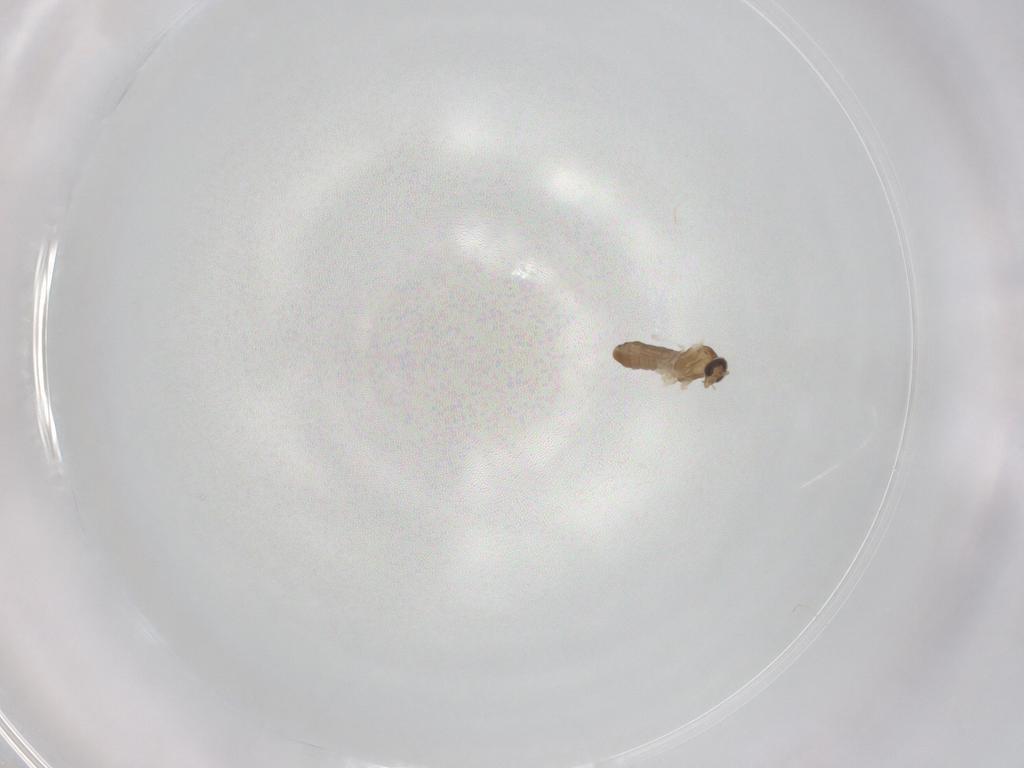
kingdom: Animalia
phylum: Arthropoda
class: Insecta
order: Diptera
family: Cecidomyiidae
